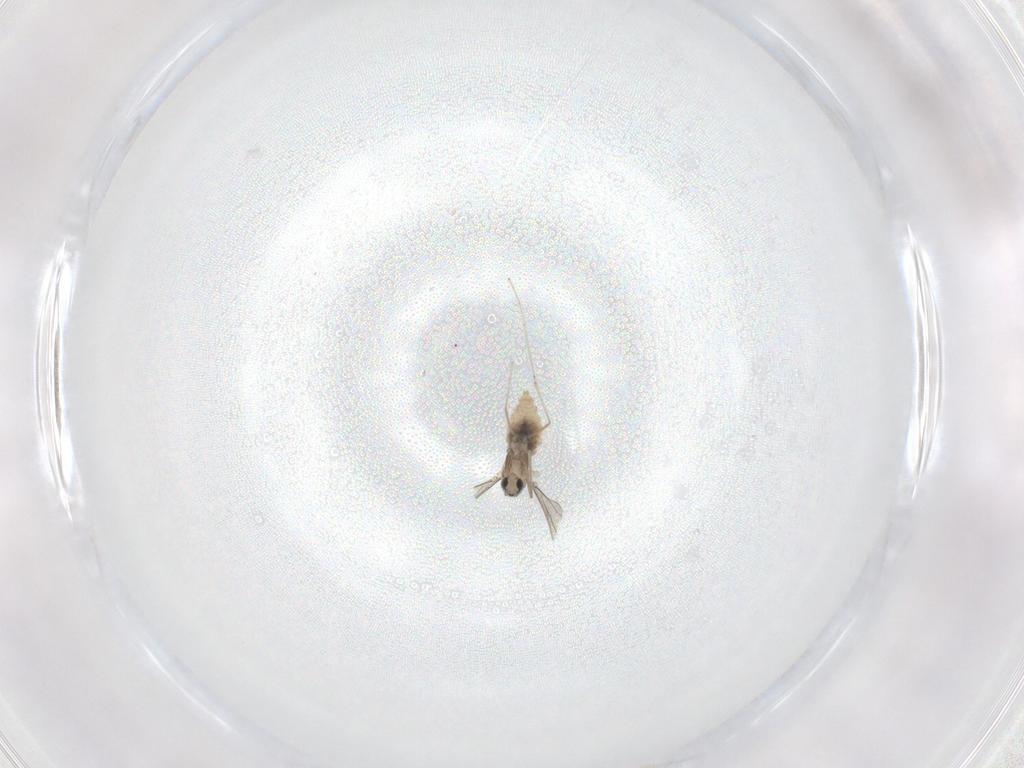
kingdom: Animalia
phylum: Arthropoda
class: Insecta
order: Diptera
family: Cecidomyiidae
